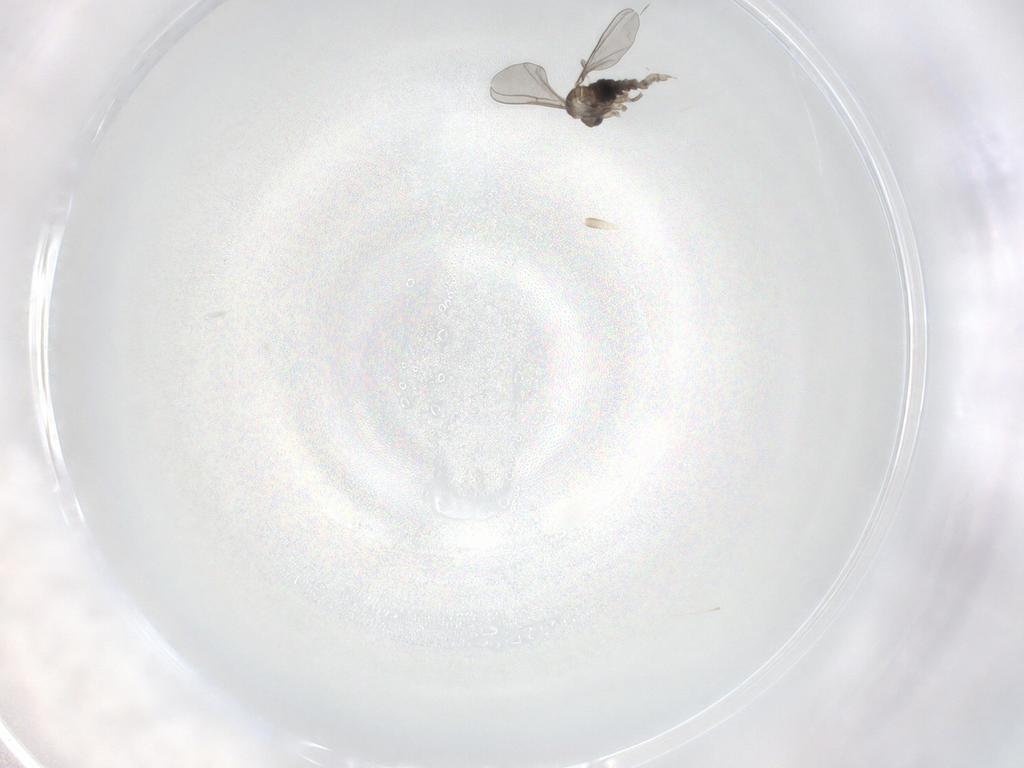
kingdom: Animalia
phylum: Arthropoda
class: Insecta
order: Diptera
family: Cecidomyiidae
